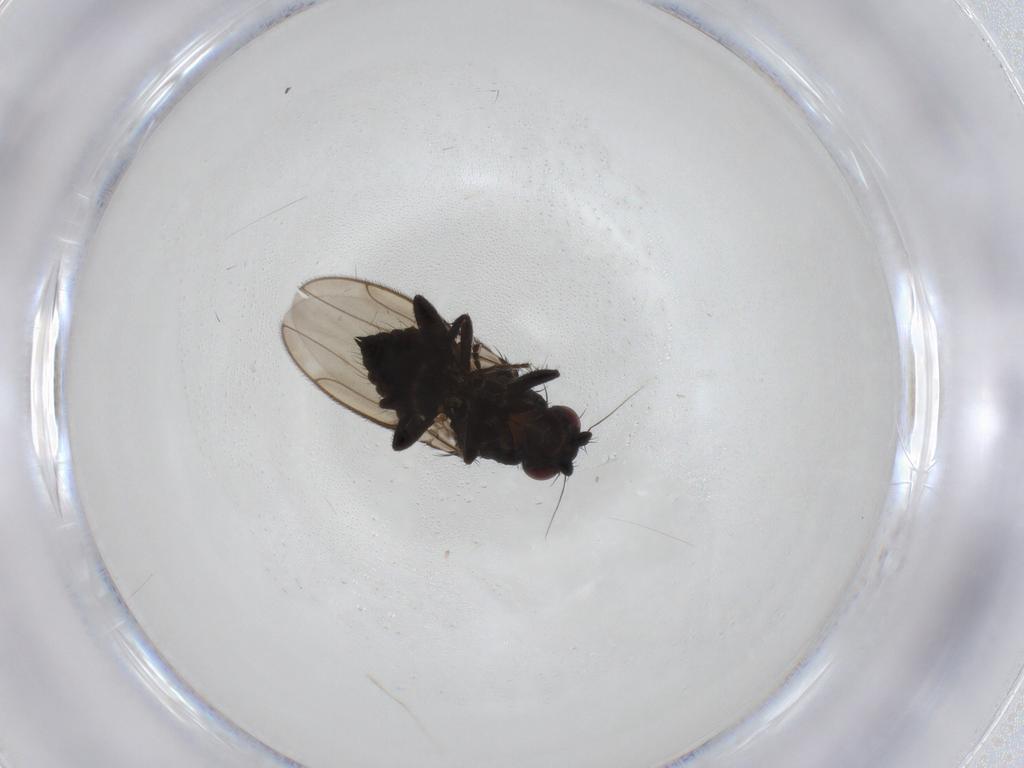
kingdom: Animalia
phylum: Arthropoda
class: Insecta
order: Diptera
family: Sphaeroceridae
